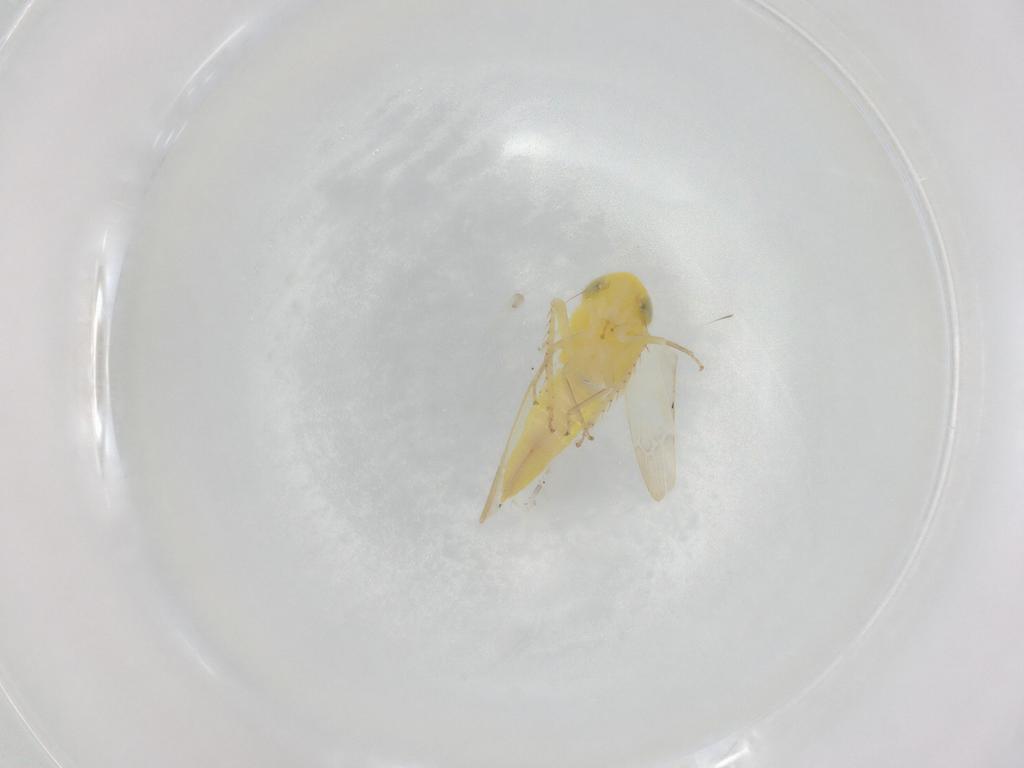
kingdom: Animalia
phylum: Arthropoda
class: Insecta
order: Hemiptera
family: Cicadellidae
